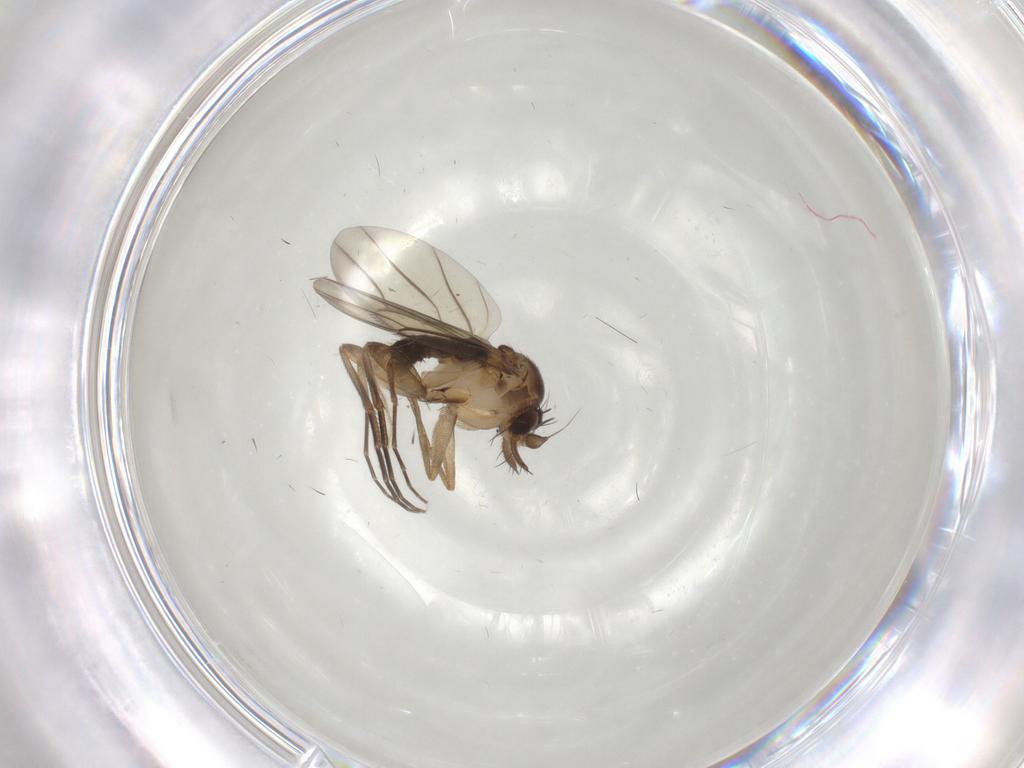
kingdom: Animalia
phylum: Arthropoda
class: Insecta
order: Diptera
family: Phoridae
